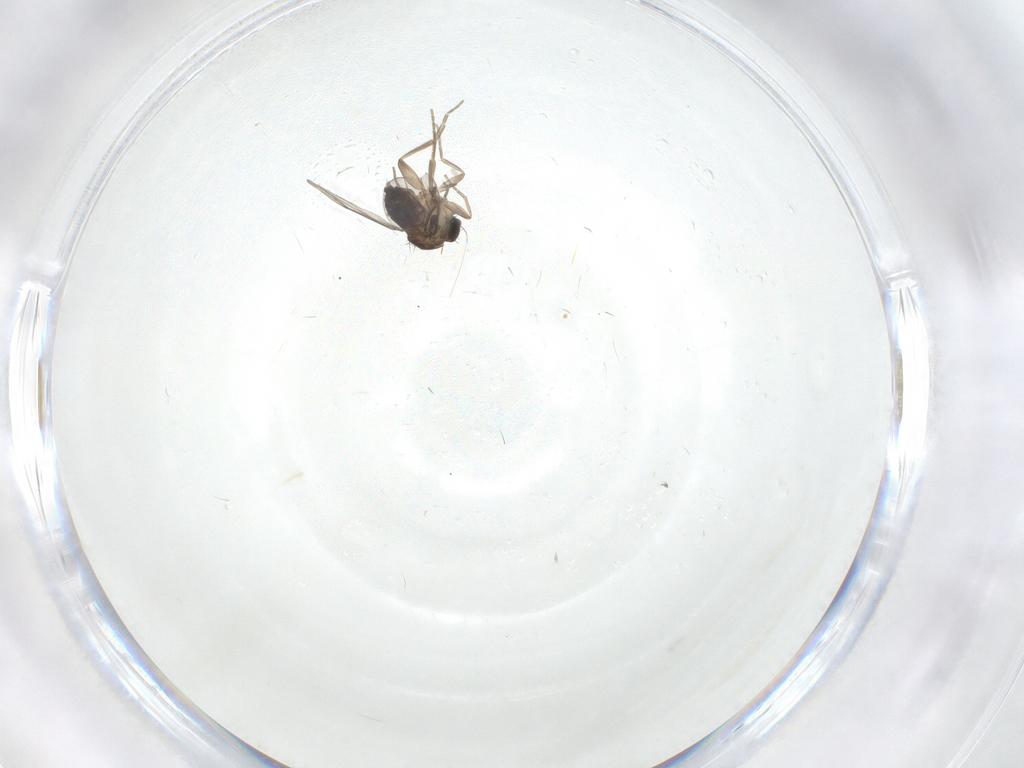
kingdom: Animalia
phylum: Arthropoda
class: Insecta
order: Diptera
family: Phoridae
